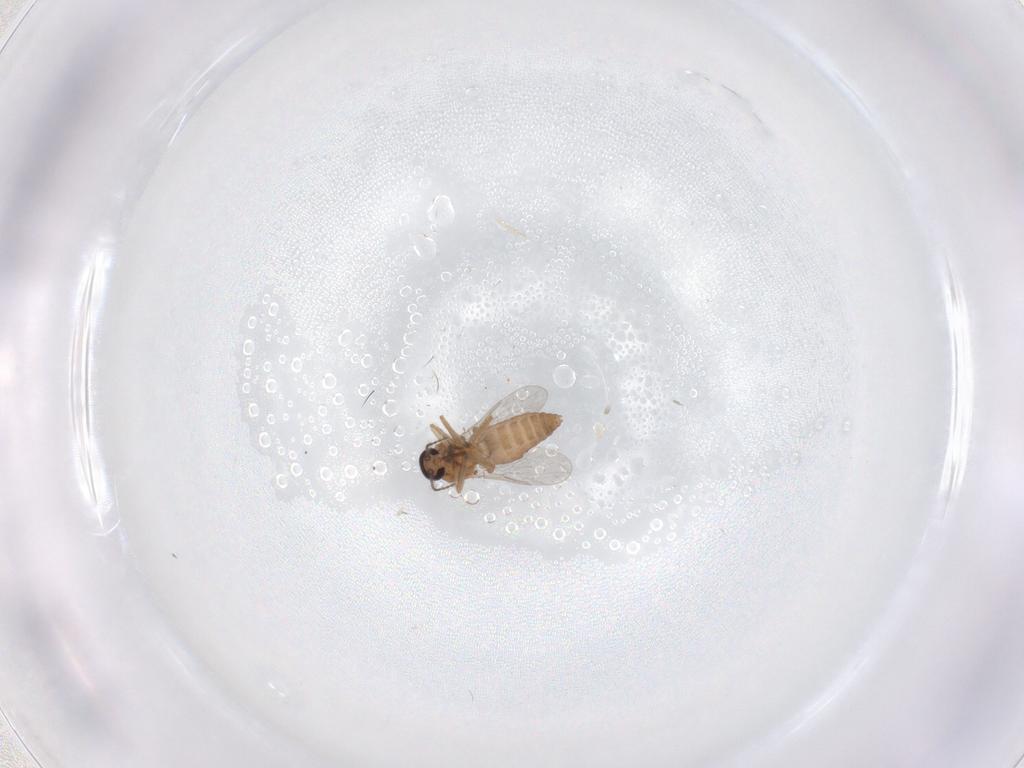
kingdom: Animalia
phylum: Arthropoda
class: Insecta
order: Diptera
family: Ceratopogonidae
